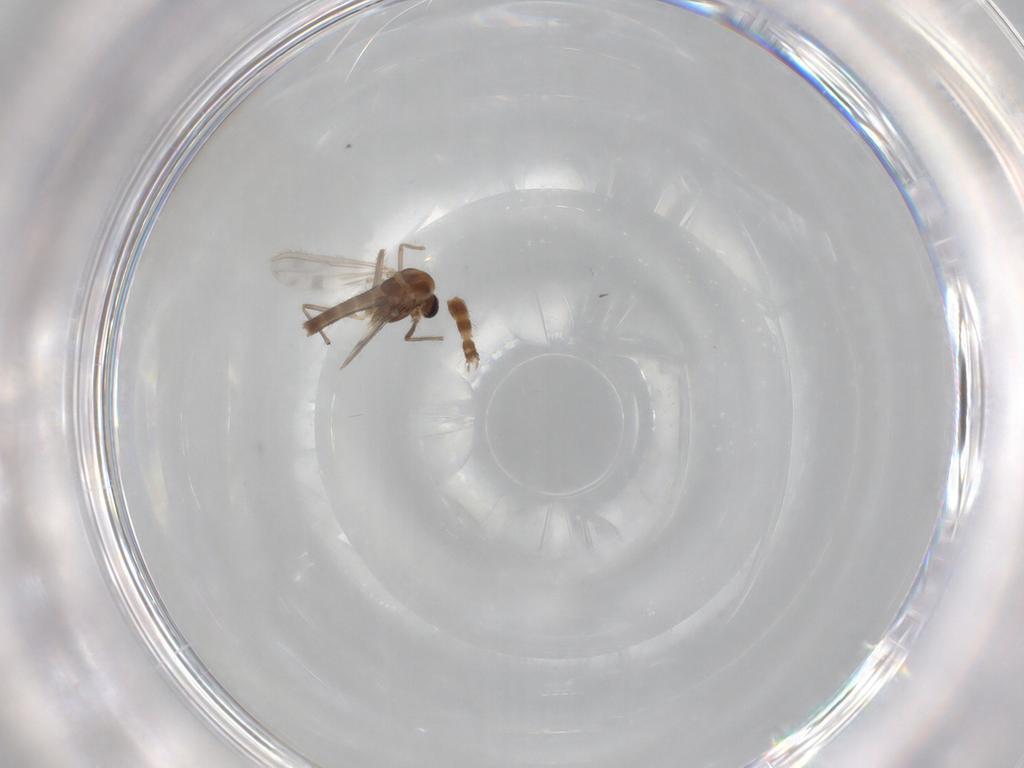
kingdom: Animalia
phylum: Arthropoda
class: Insecta
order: Diptera
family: Chironomidae
